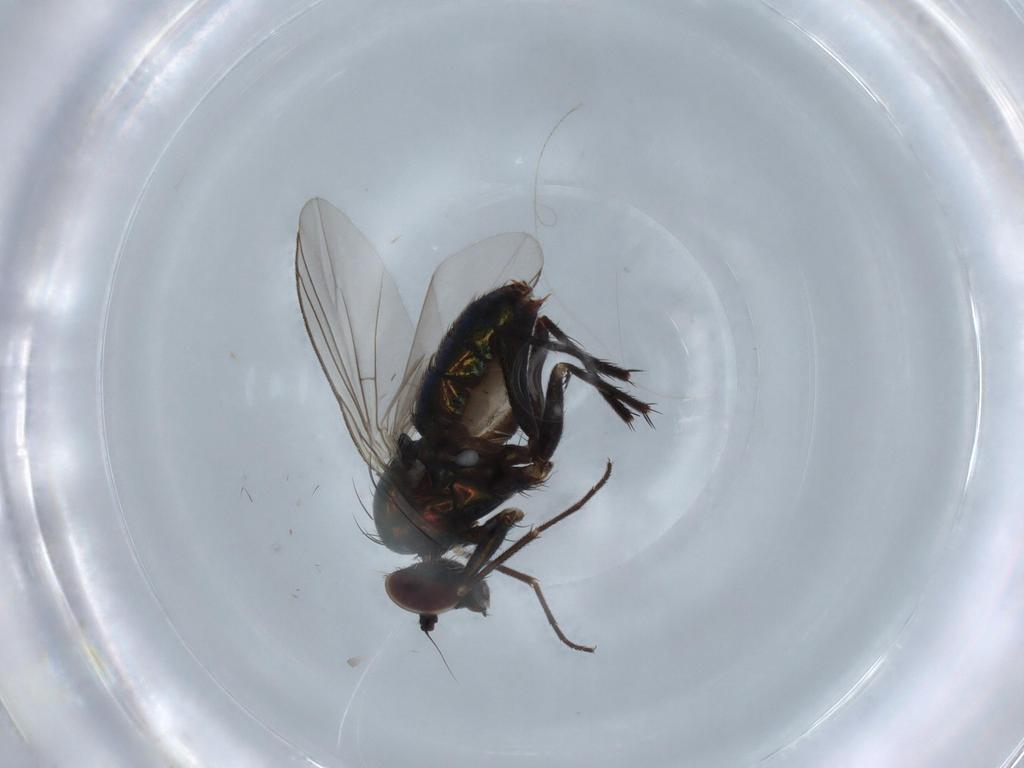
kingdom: Animalia
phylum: Arthropoda
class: Insecta
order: Diptera
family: Dolichopodidae
